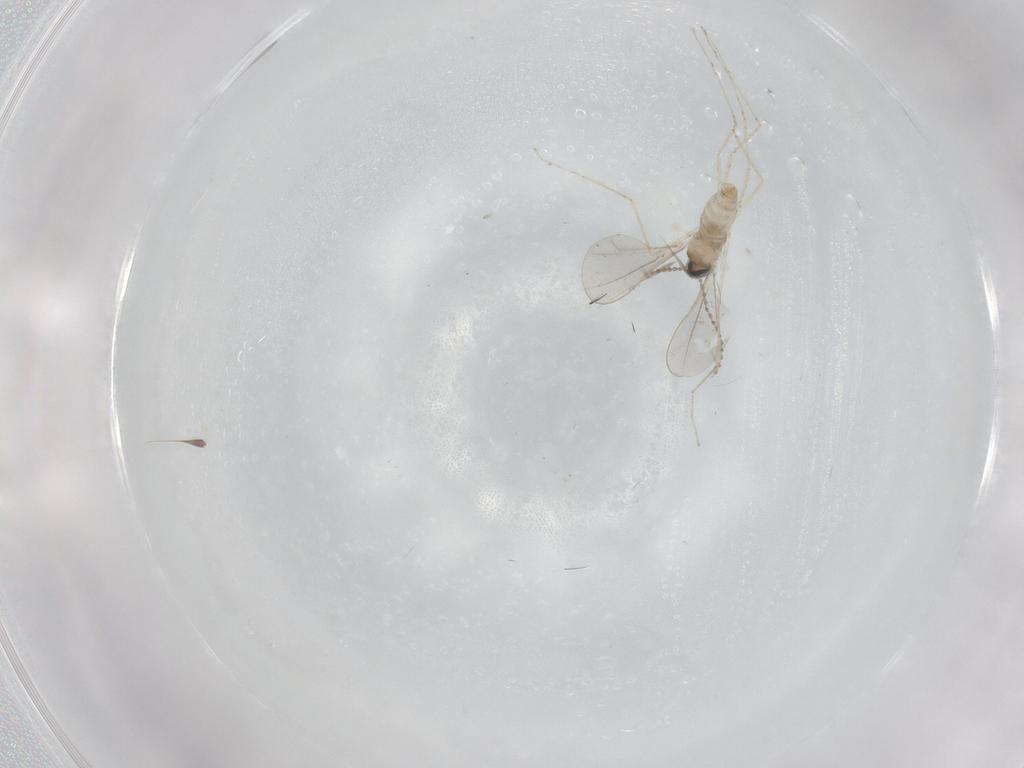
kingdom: Animalia
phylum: Arthropoda
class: Insecta
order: Diptera
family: Cecidomyiidae
